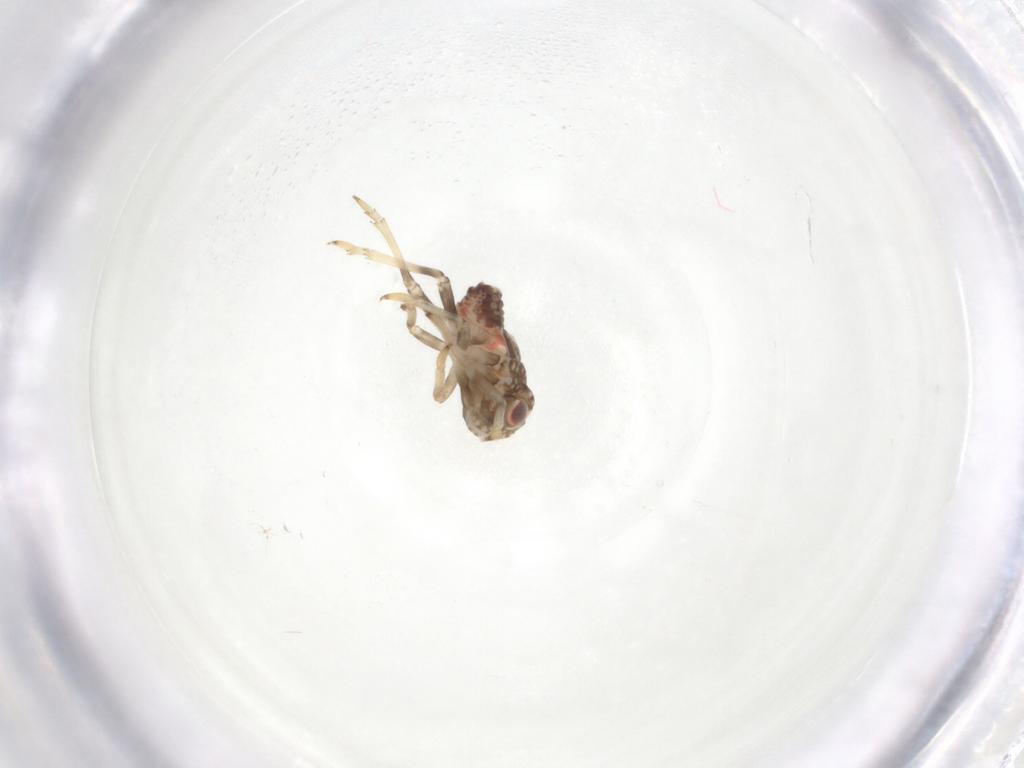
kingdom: Animalia
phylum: Arthropoda
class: Insecta
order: Hemiptera
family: Tropiduchidae
